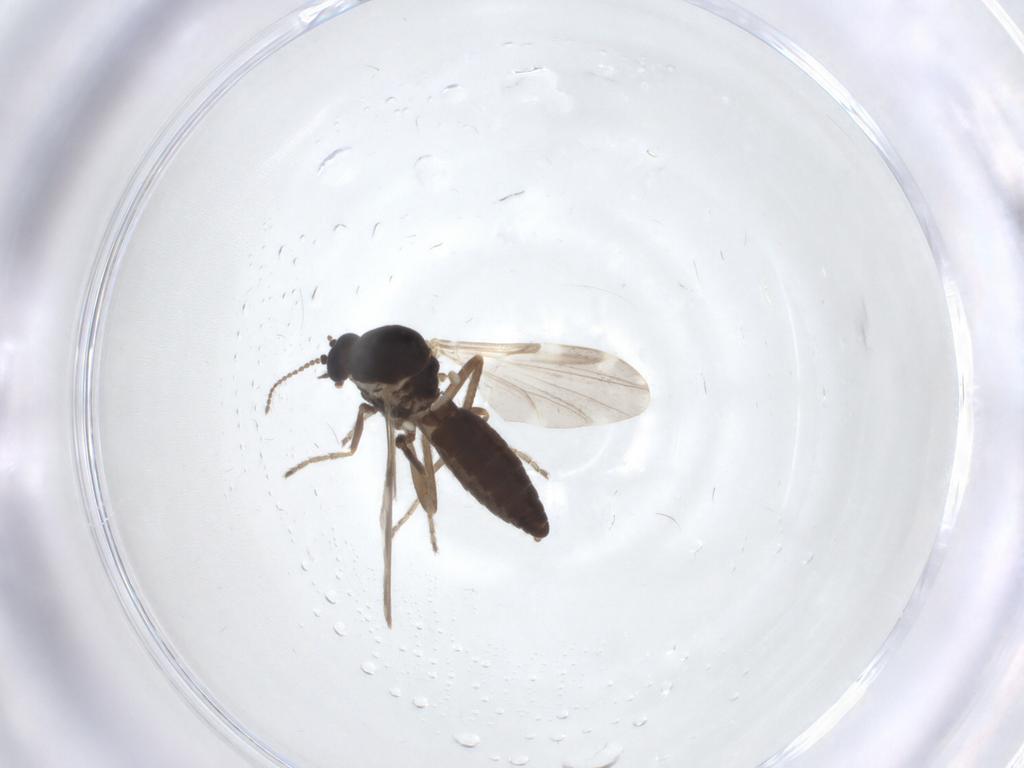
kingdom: Animalia
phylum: Arthropoda
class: Insecta
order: Diptera
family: Ceratopogonidae
